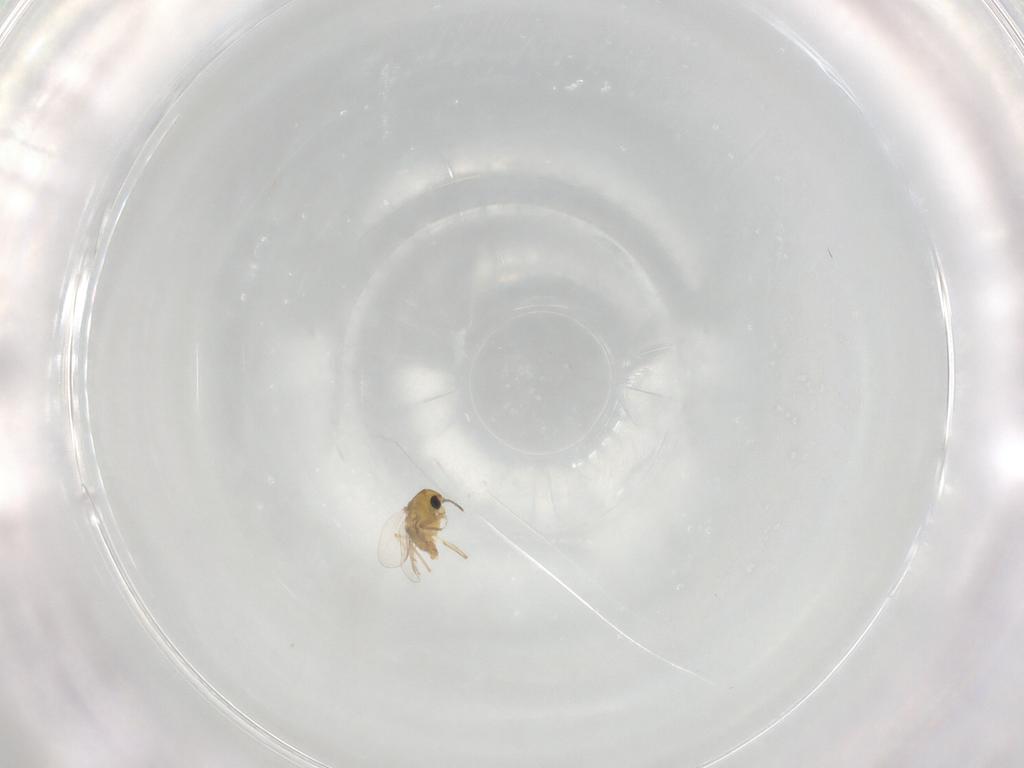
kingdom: Animalia
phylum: Arthropoda
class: Insecta
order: Diptera
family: Chironomidae
